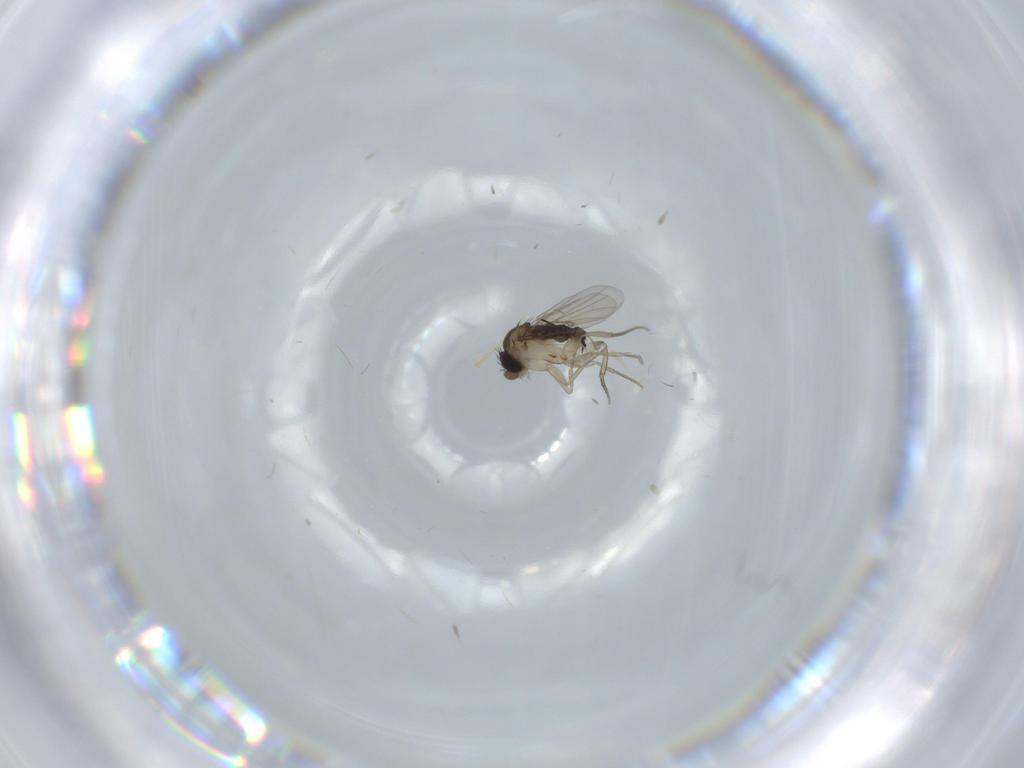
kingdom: Animalia
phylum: Arthropoda
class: Insecta
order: Diptera
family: Phoridae
